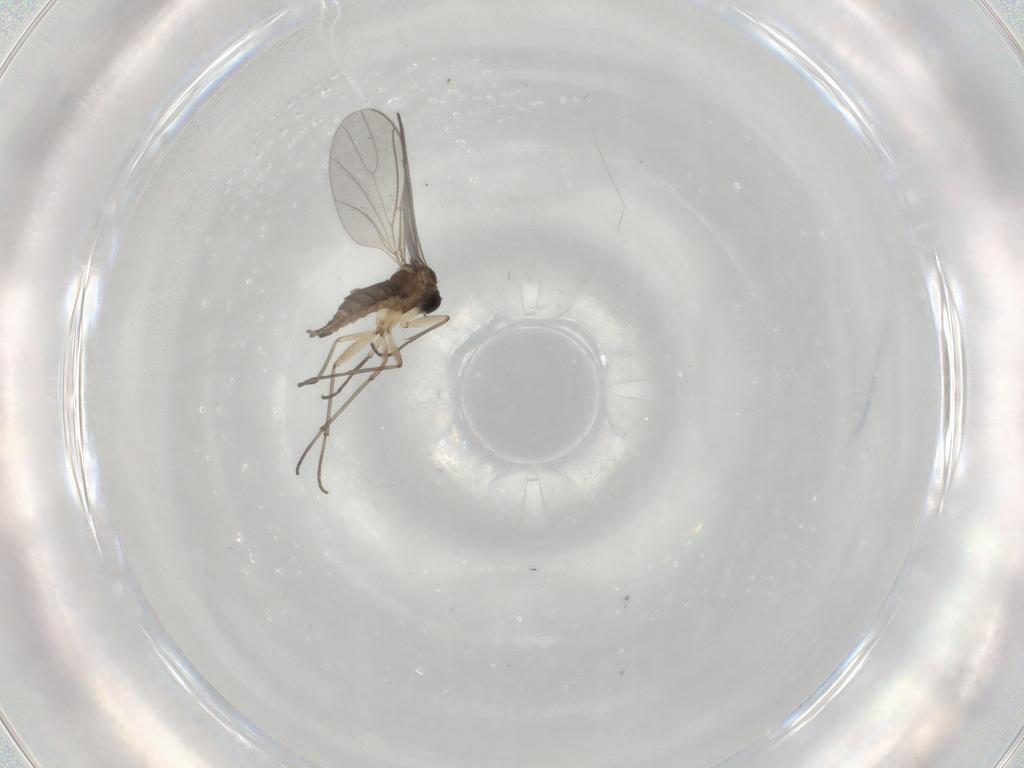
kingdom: Animalia
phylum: Arthropoda
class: Insecta
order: Diptera
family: Sciaridae
